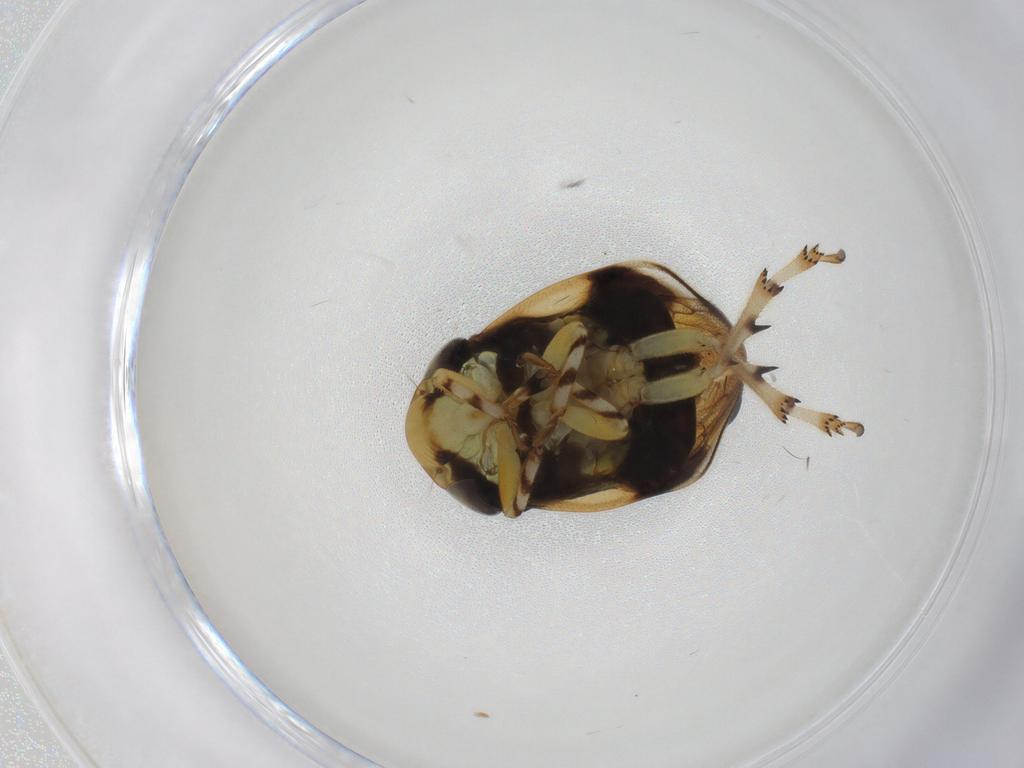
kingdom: Animalia
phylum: Arthropoda
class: Insecta
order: Hemiptera
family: Clastopteridae
